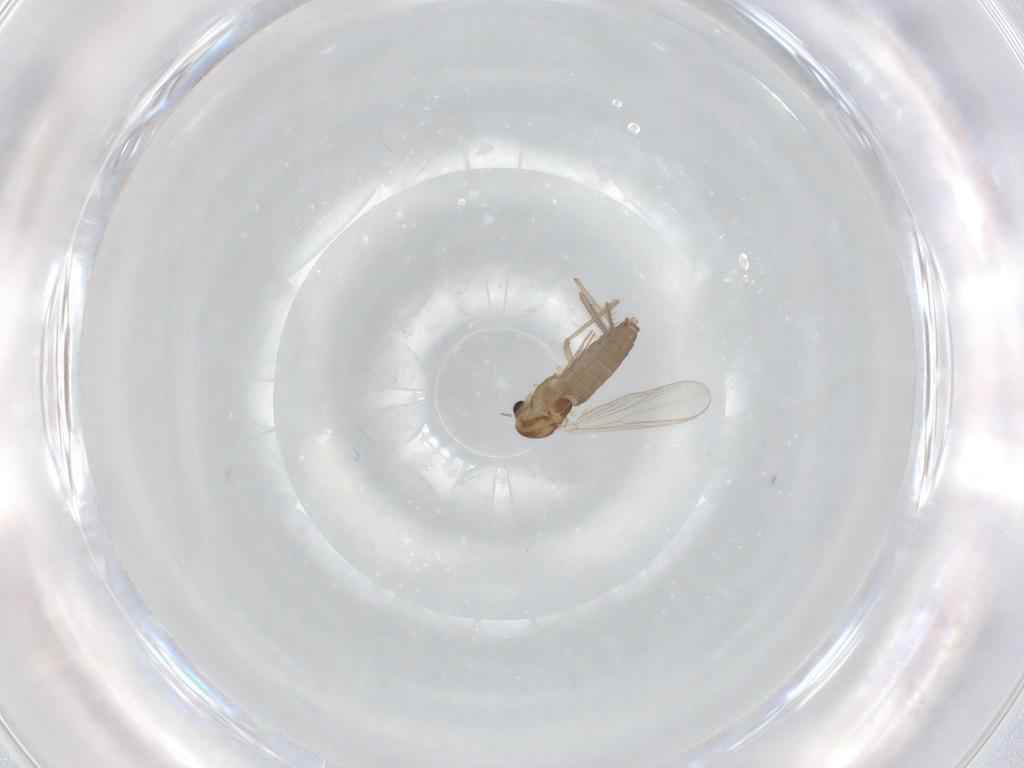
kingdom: Animalia
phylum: Arthropoda
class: Insecta
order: Diptera
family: Chironomidae
